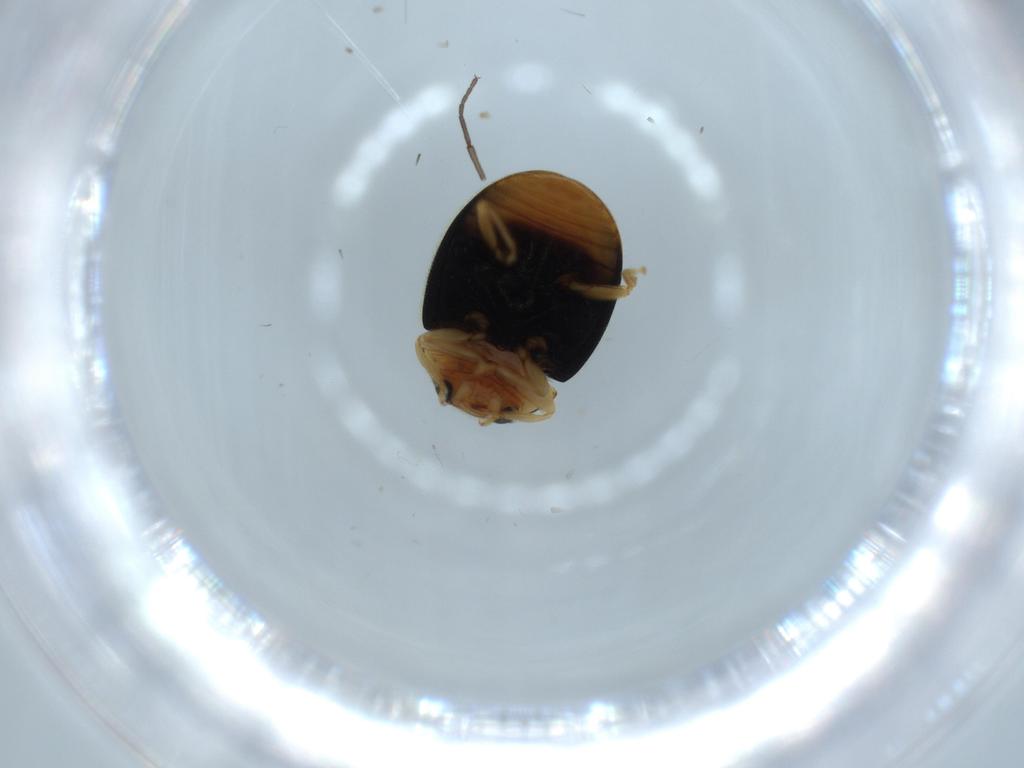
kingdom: Animalia
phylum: Arthropoda
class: Insecta
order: Coleoptera
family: Coccinellidae
